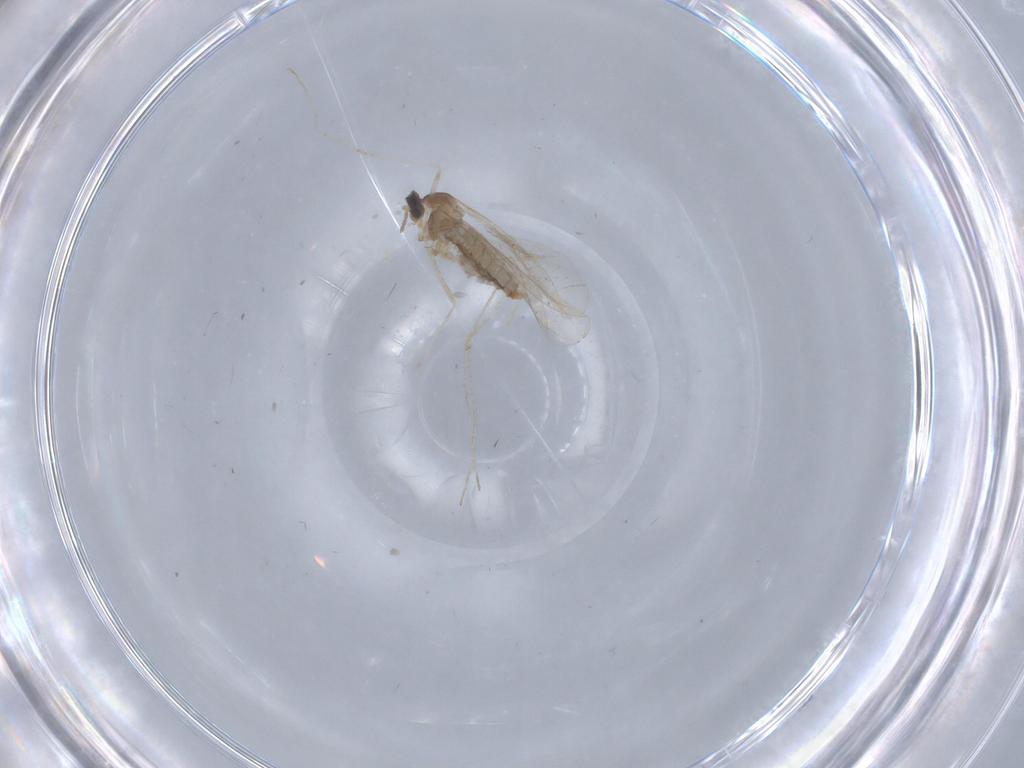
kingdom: Animalia
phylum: Arthropoda
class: Insecta
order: Diptera
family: Cecidomyiidae
